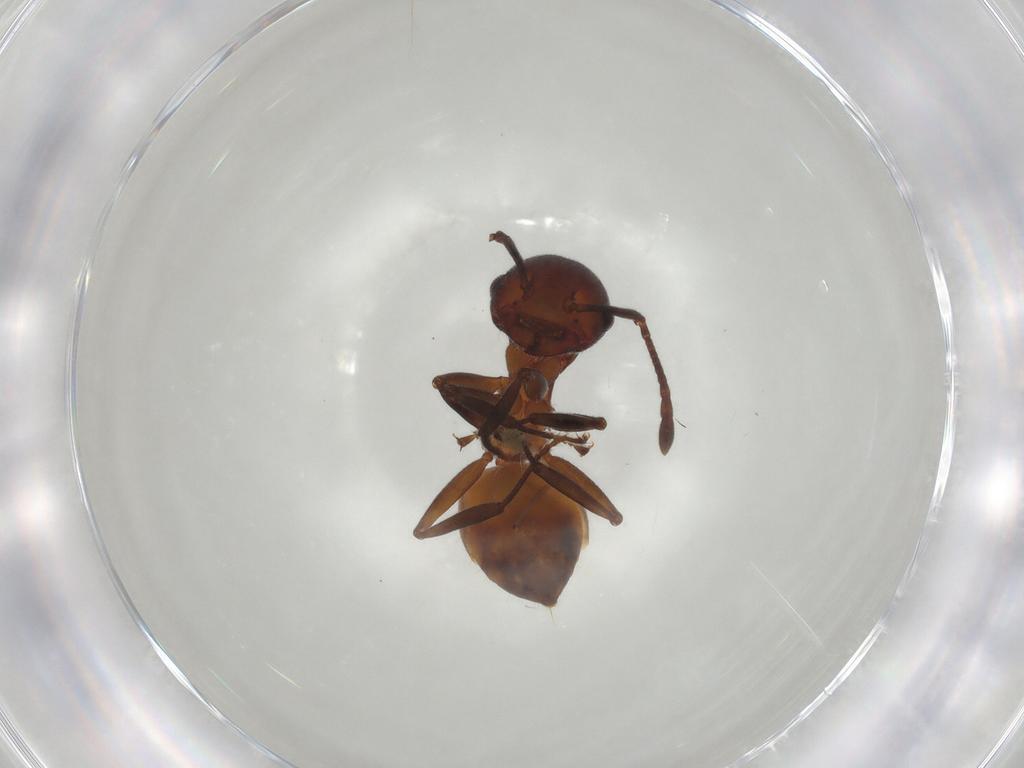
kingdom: Animalia
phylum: Arthropoda
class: Insecta
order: Hymenoptera
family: Formicidae
